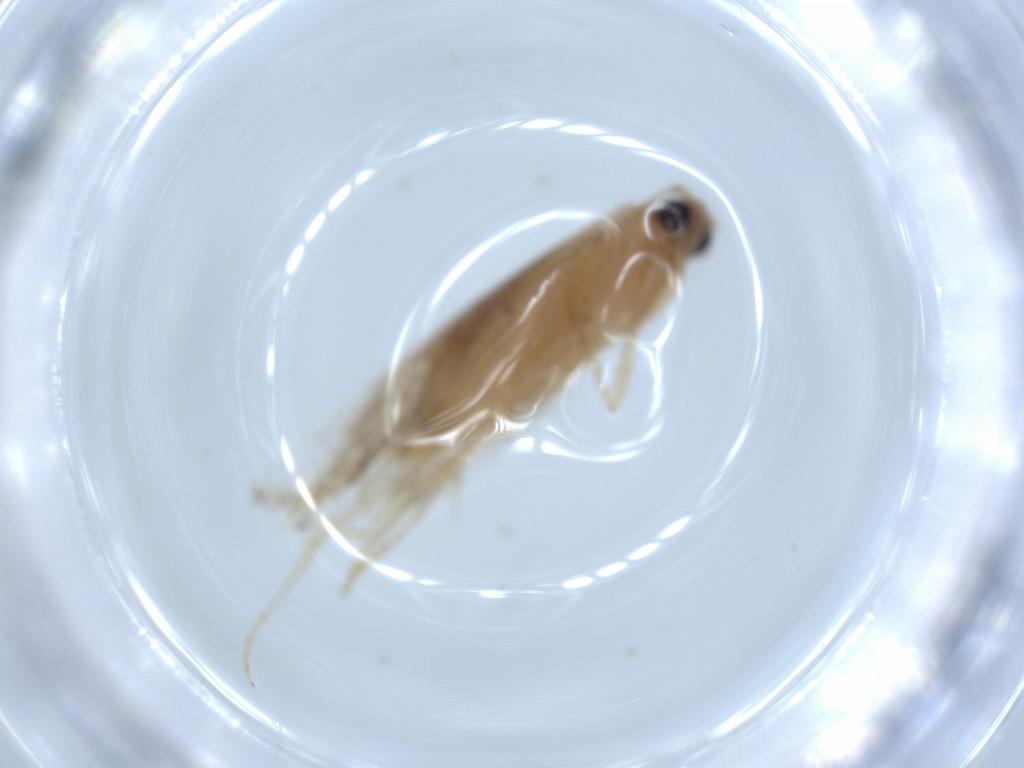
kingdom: Animalia
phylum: Arthropoda
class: Insecta
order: Lepidoptera
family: Tineidae
